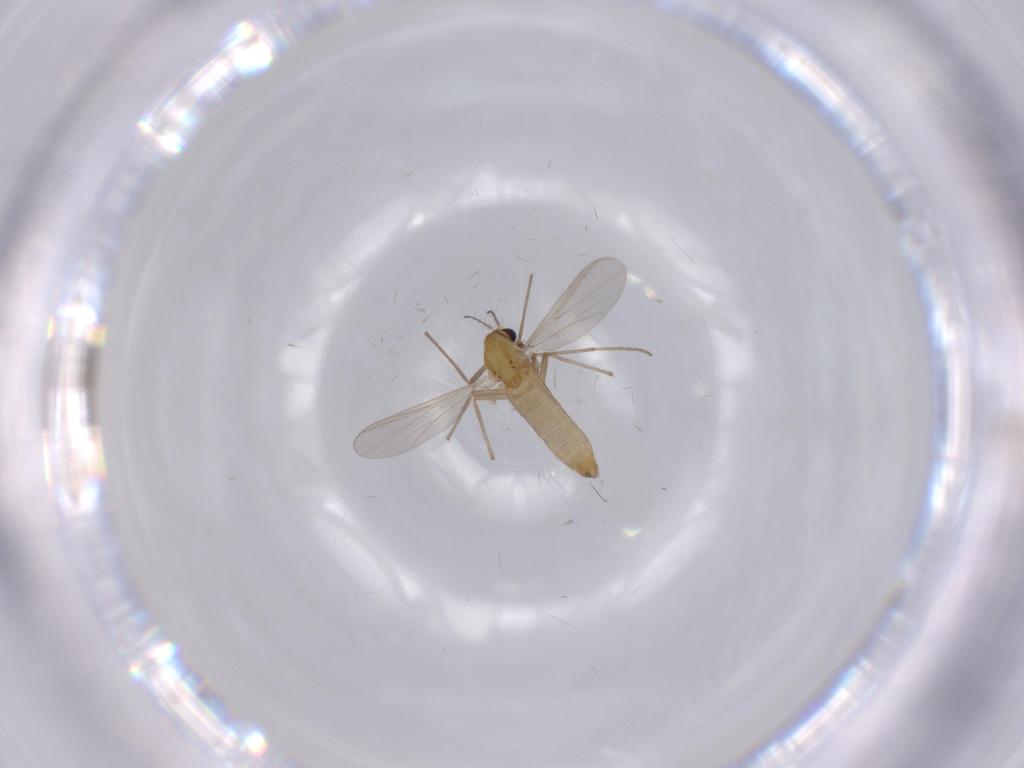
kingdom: Animalia
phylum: Arthropoda
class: Insecta
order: Diptera
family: Chironomidae
